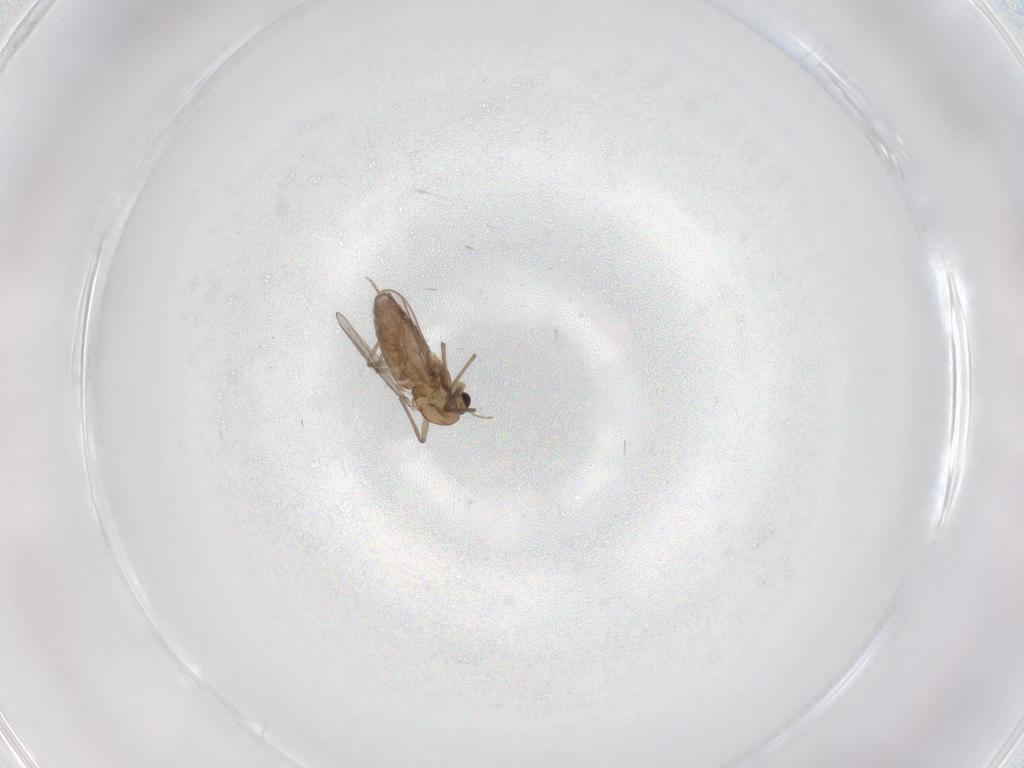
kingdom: Animalia
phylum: Arthropoda
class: Insecta
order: Diptera
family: Chironomidae
